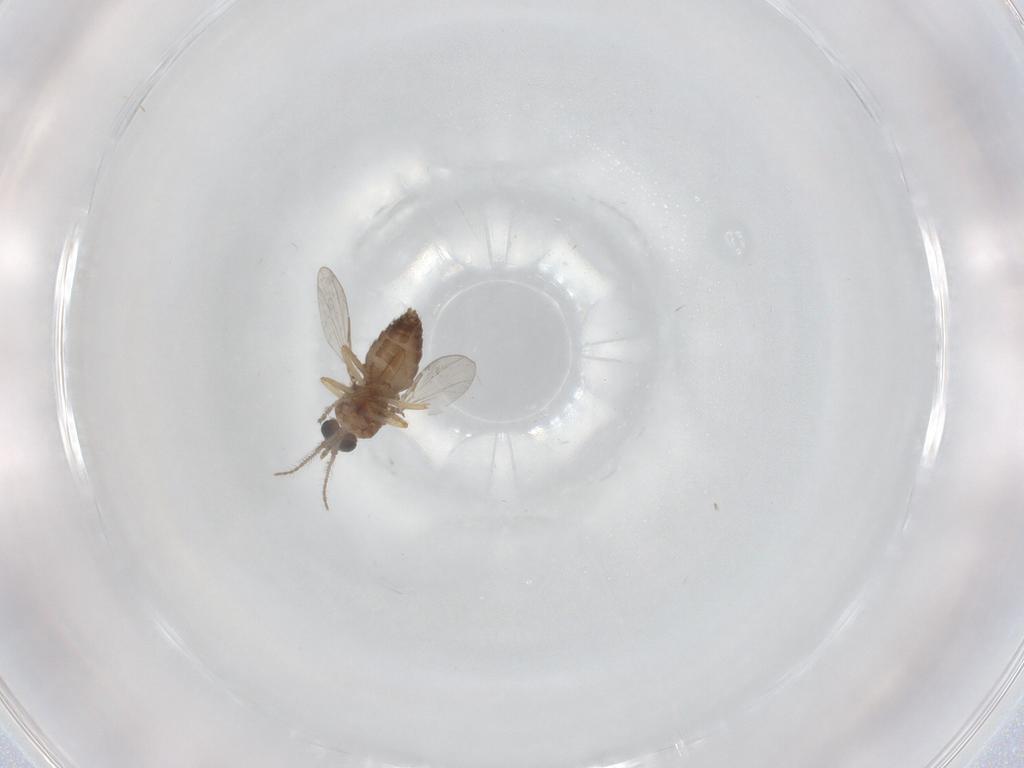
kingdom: Animalia
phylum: Arthropoda
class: Insecta
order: Diptera
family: Ceratopogonidae
